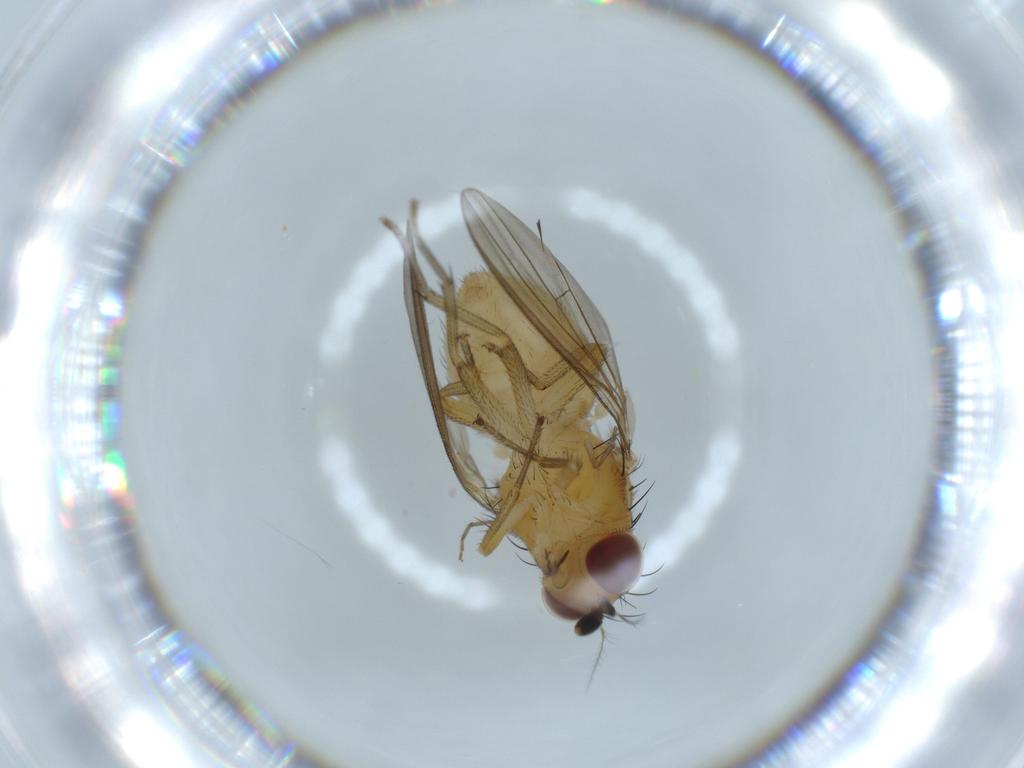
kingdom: Animalia
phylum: Arthropoda
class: Insecta
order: Diptera
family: Lauxaniidae
